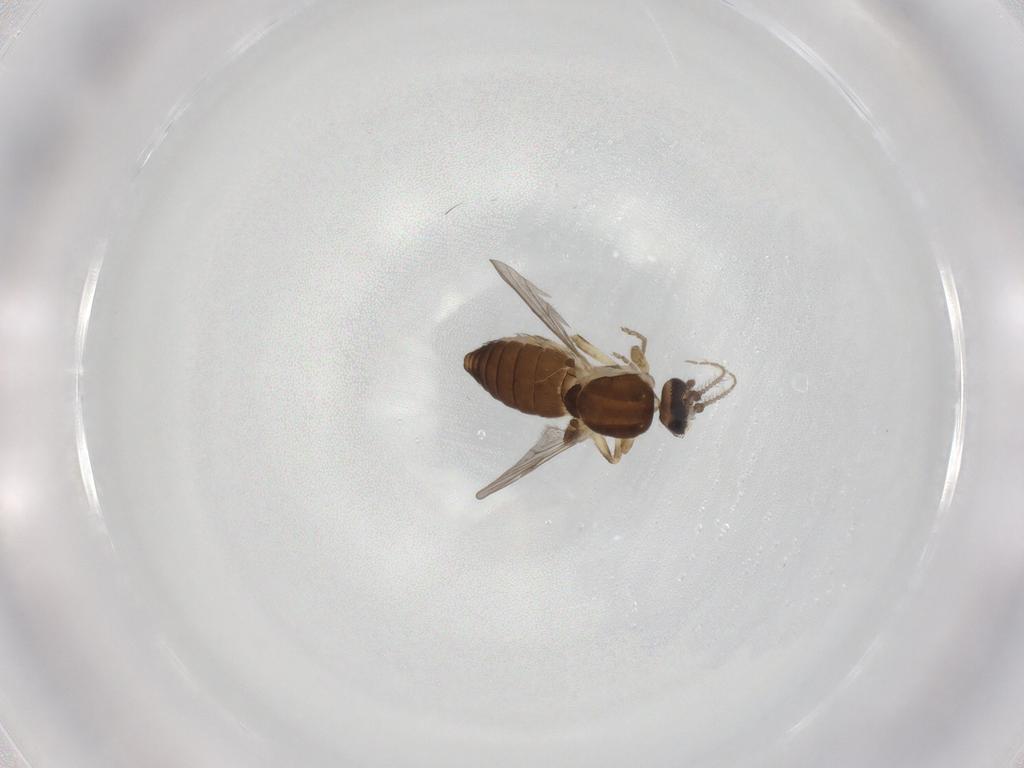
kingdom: Animalia
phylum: Arthropoda
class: Insecta
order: Diptera
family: Ceratopogonidae
